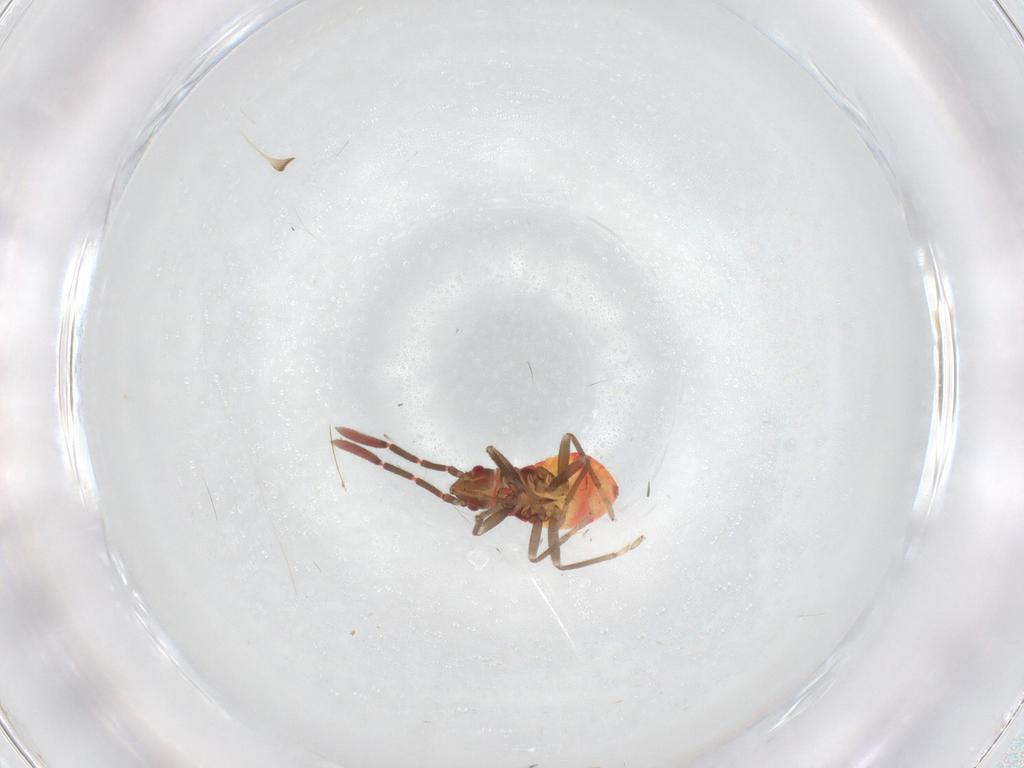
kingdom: Animalia
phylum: Arthropoda
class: Insecta
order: Hemiptera
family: Rhyparochromidae
